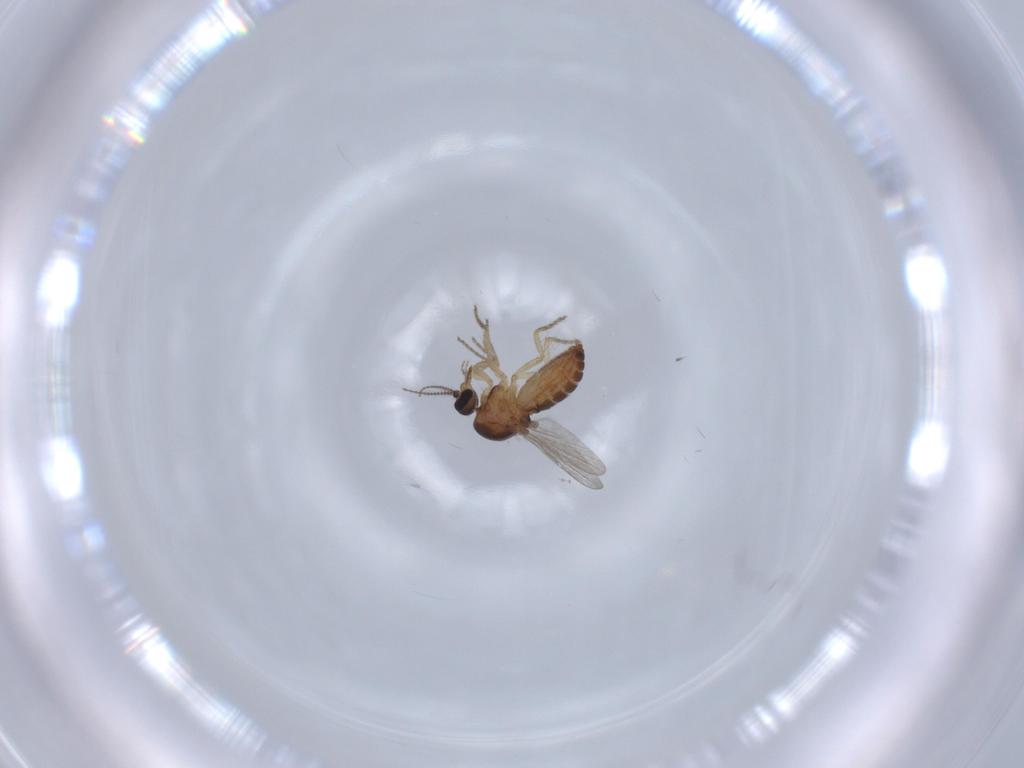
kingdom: Animalia
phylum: Arthropoda
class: Insecta
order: Diptera
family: Ceratopogonidae
